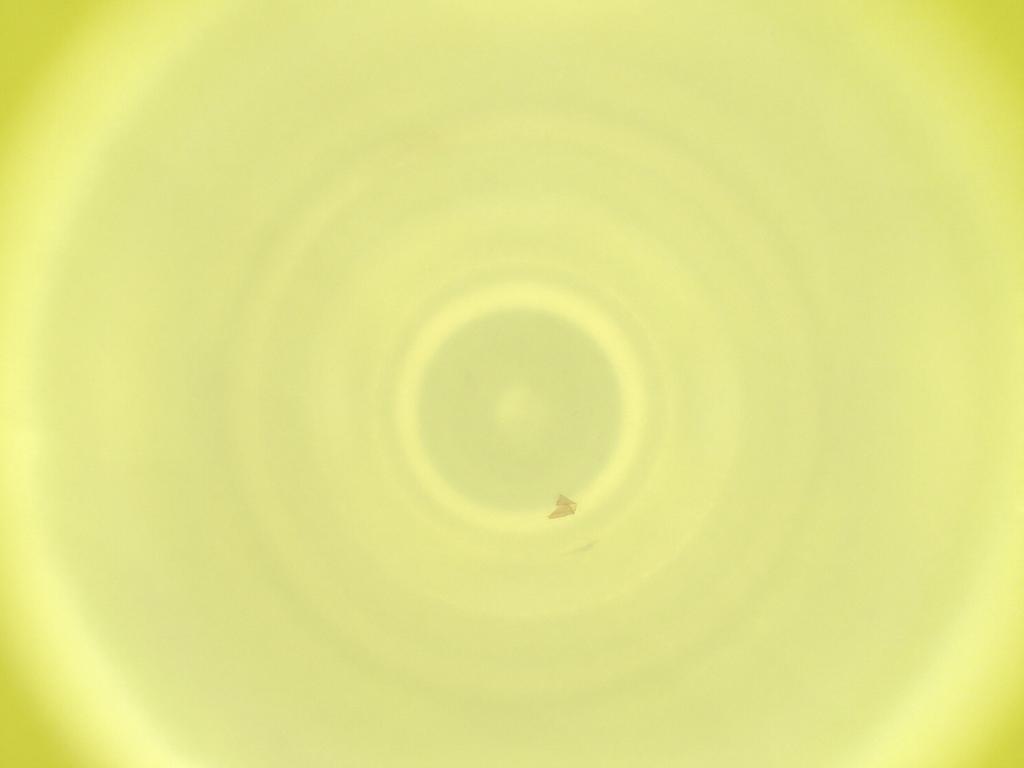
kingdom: Animalia
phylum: Arthropoda
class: Insecta
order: Diptera
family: Cecidomyiidae
